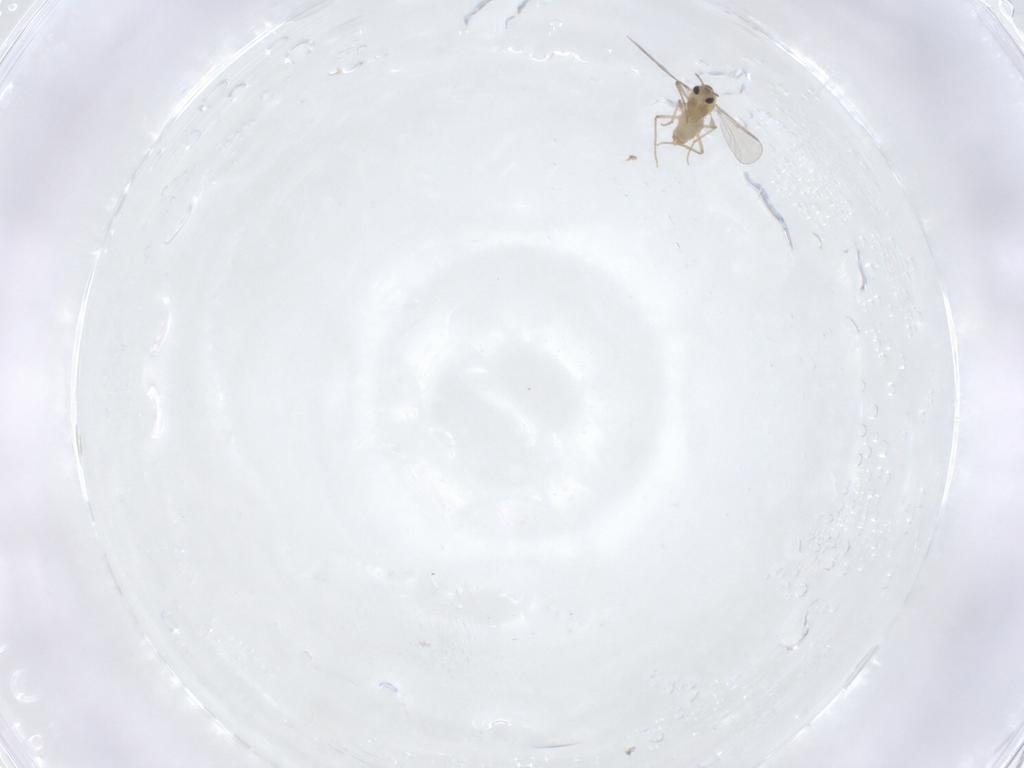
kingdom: Animalia
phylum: Arthropoda
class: Insecta
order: Diptera
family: Chironomidae
